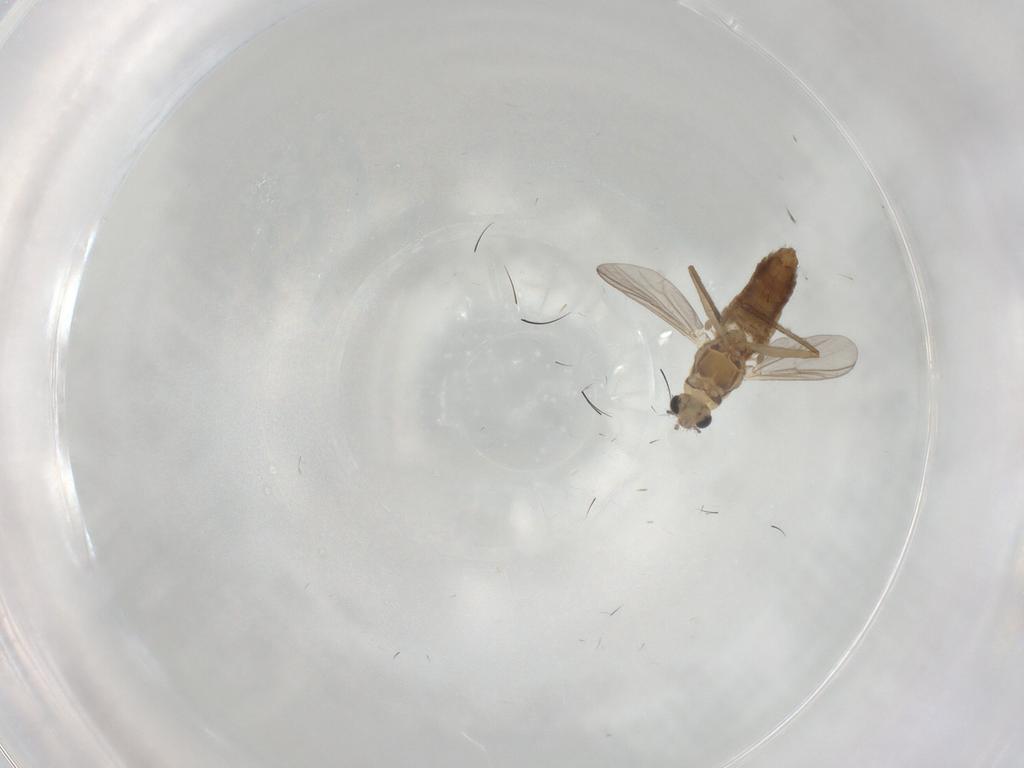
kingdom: Animalia
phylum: Arthropoda
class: Insecta
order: Diptera
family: Chironomidae
